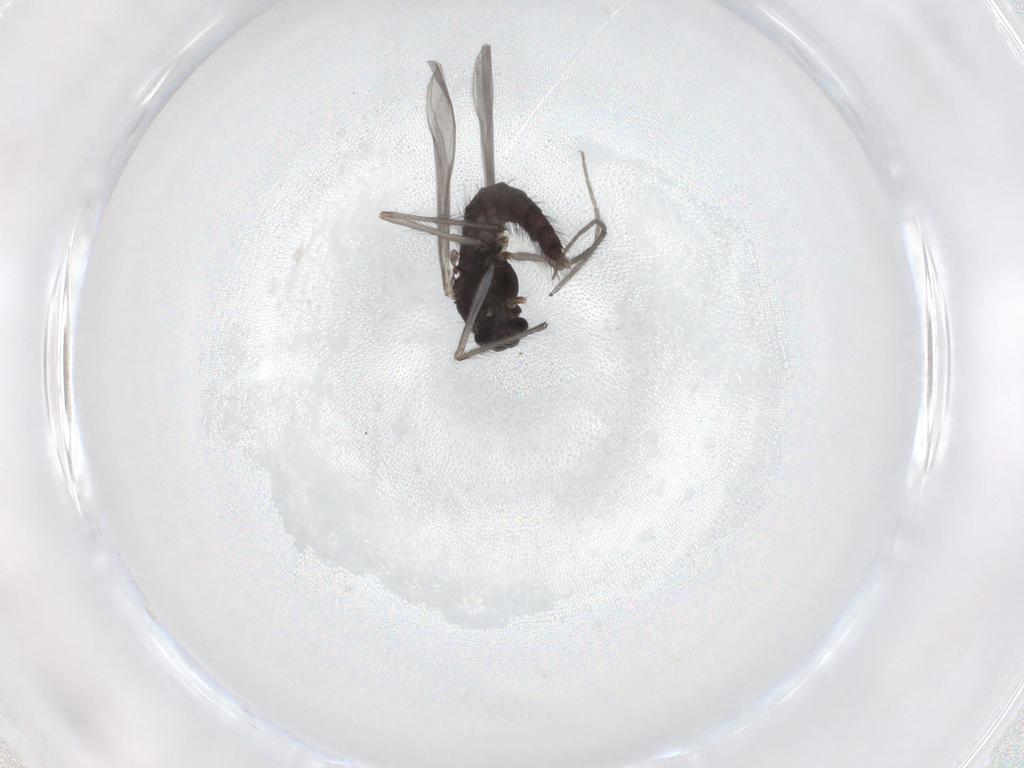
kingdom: Animalia
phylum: Arthropoda
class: Insecta
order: Diptera
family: Chironomidae
